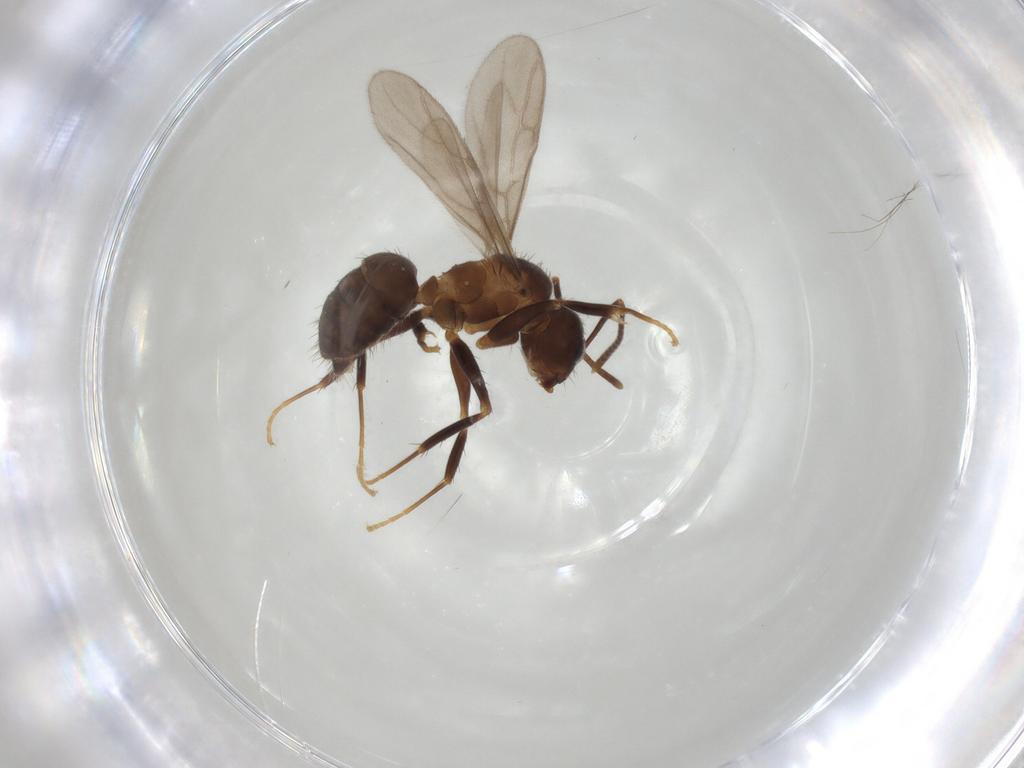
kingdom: Animalia
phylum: Arthropoda
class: Insecta
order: Hymenoptera
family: Formicidae
